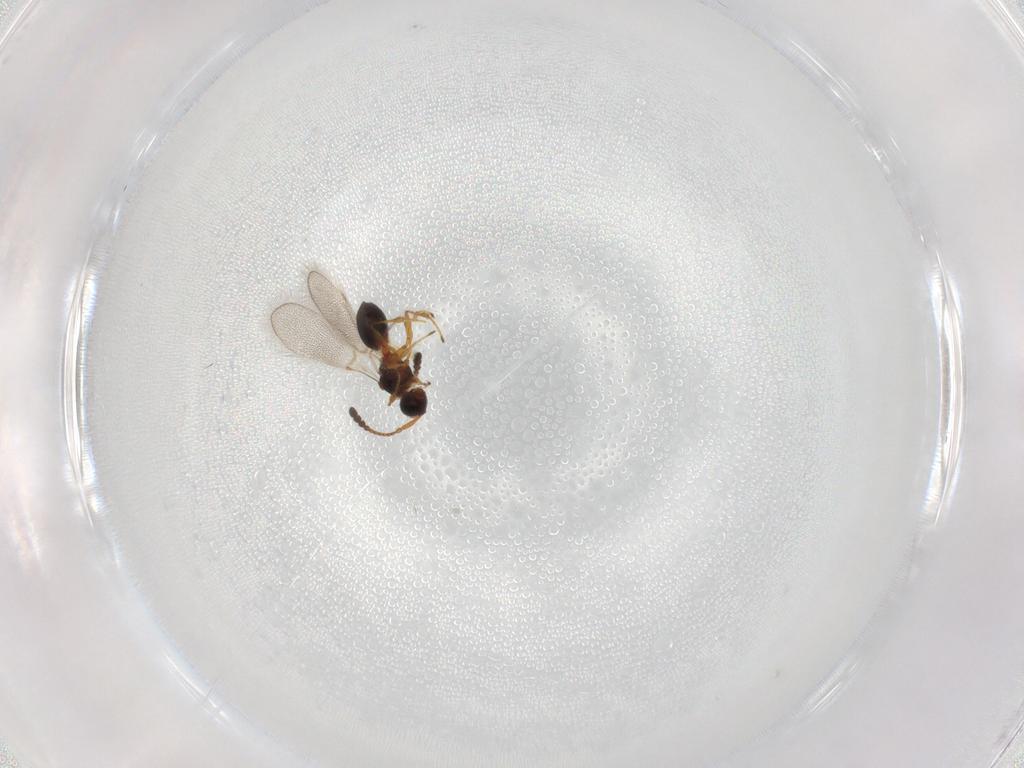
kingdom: Animalia
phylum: Arthropoda
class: Insecta
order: Hymenoptera
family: Diapriidae
